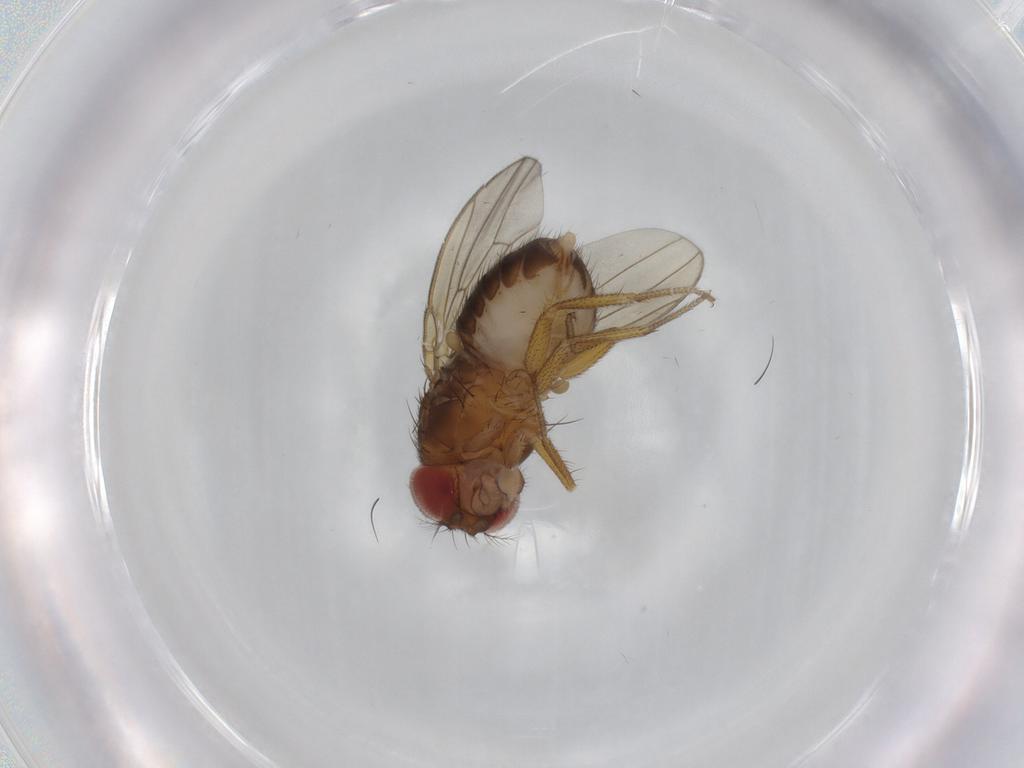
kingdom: Animalia
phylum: Arthropoda
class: Insecta
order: Diptera
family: Drosophilidae
